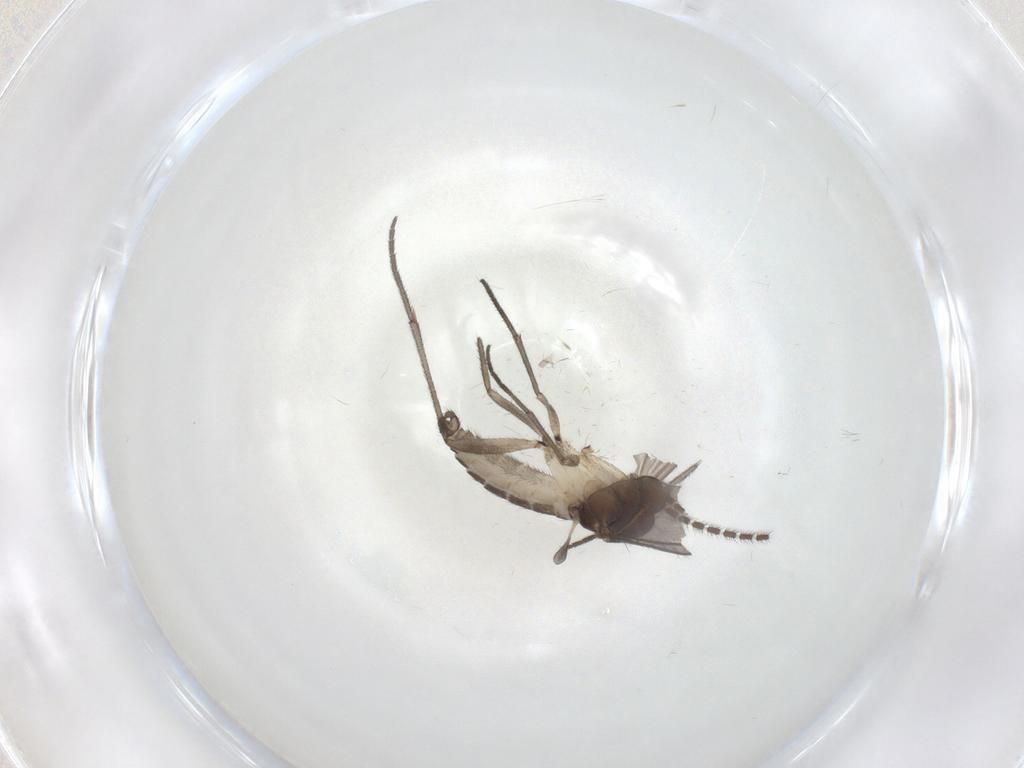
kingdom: Animalia
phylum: Arthropoda
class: Insecta
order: Diptera
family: Sciaridae
